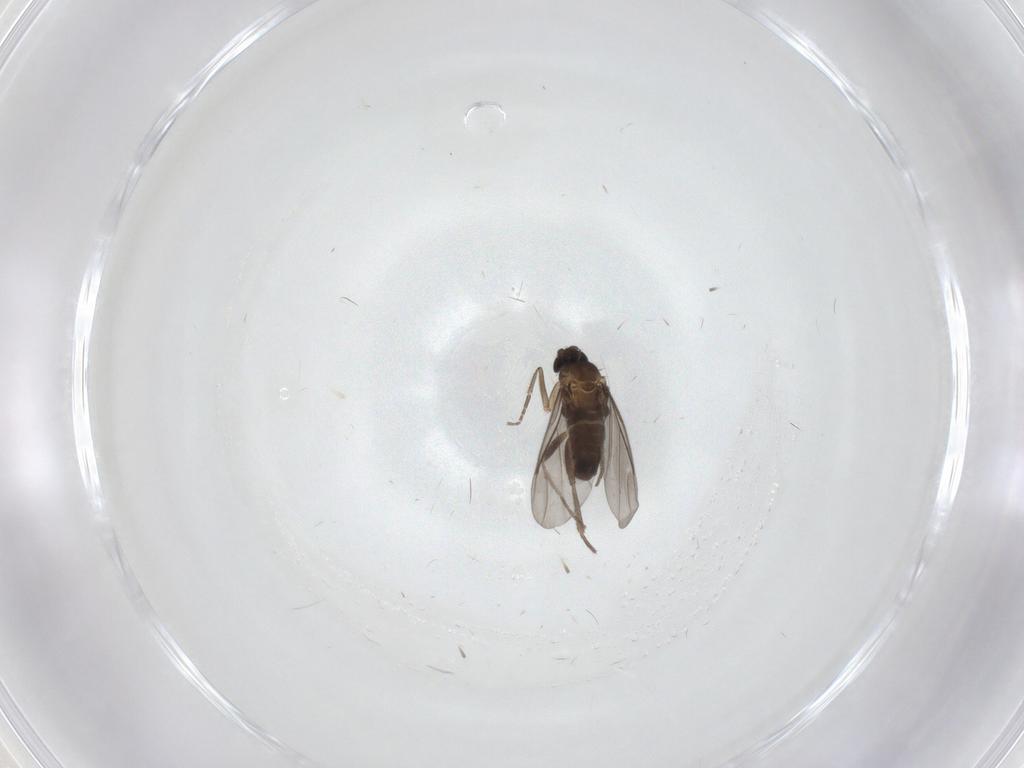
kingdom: Animalia
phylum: Arthropoda
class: Insecta
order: Diptera
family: Limoniidae
